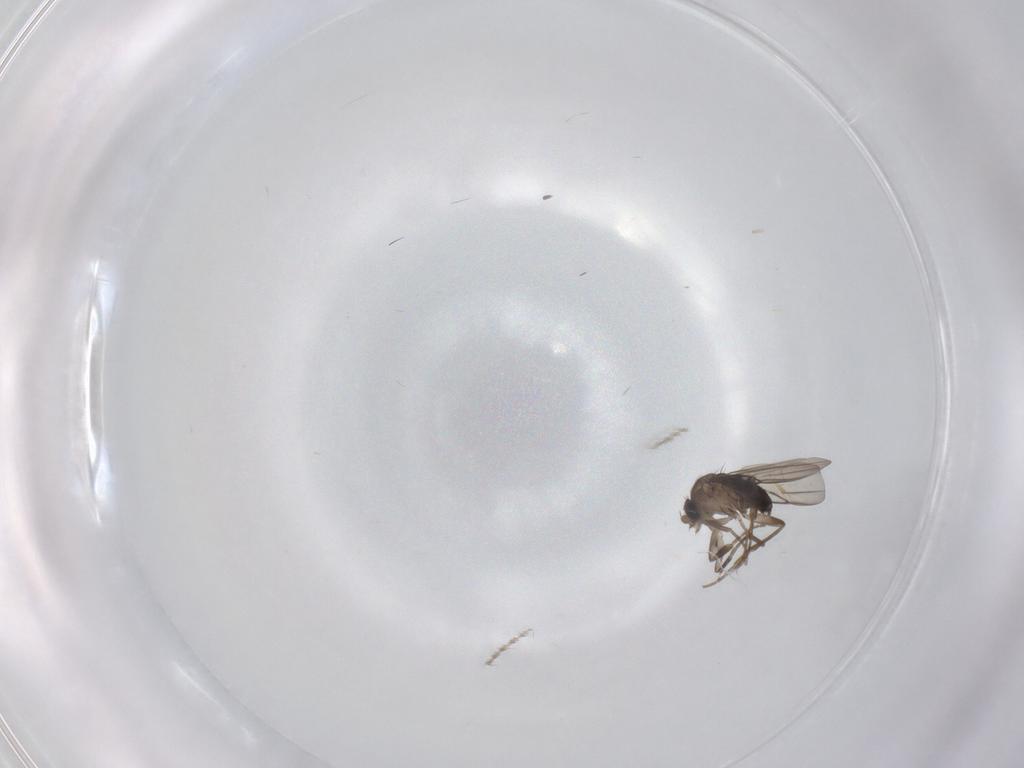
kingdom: Animalia
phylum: Arthropoda
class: Insecta
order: Diptera
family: Phoridae
